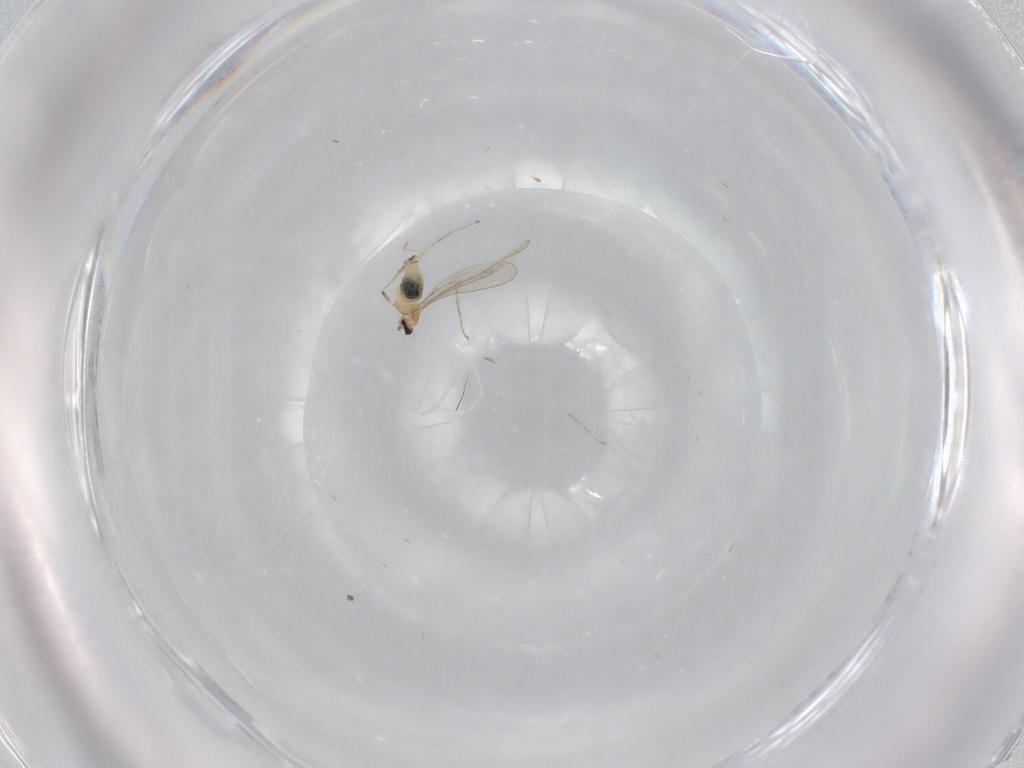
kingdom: Animalia
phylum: Arthropoda
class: Insecta
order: Diptera
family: Cecidomyiidae
